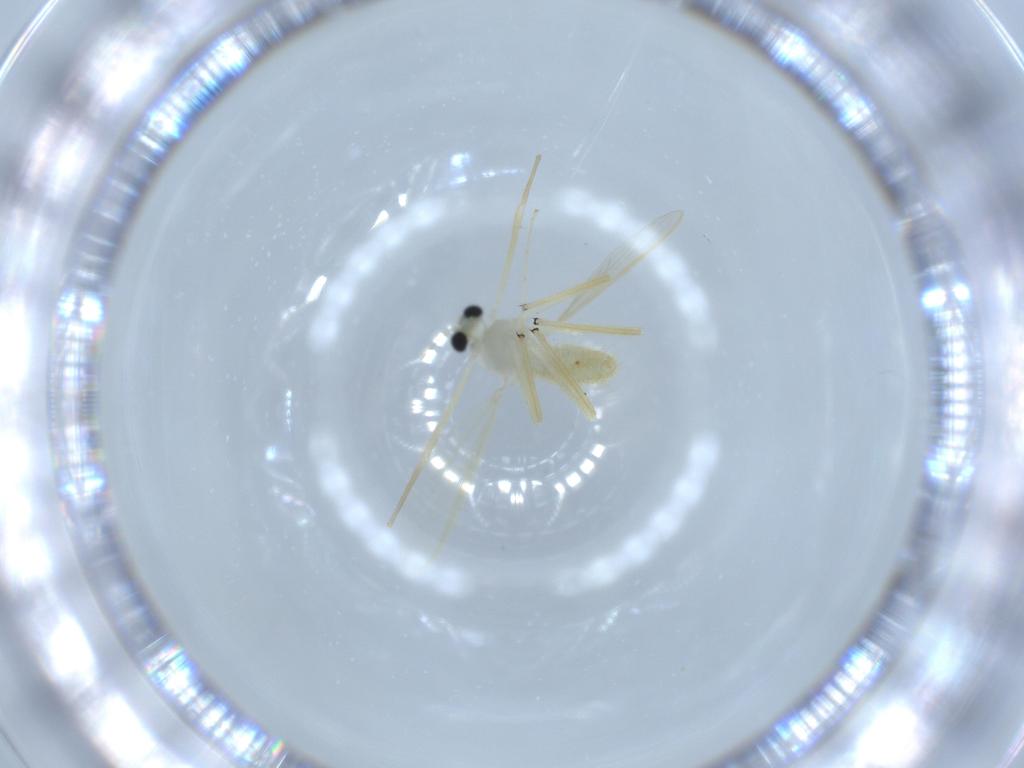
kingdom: Animalia
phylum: Arthropoda
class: Insecta
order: Diptera
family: Chironomidae
